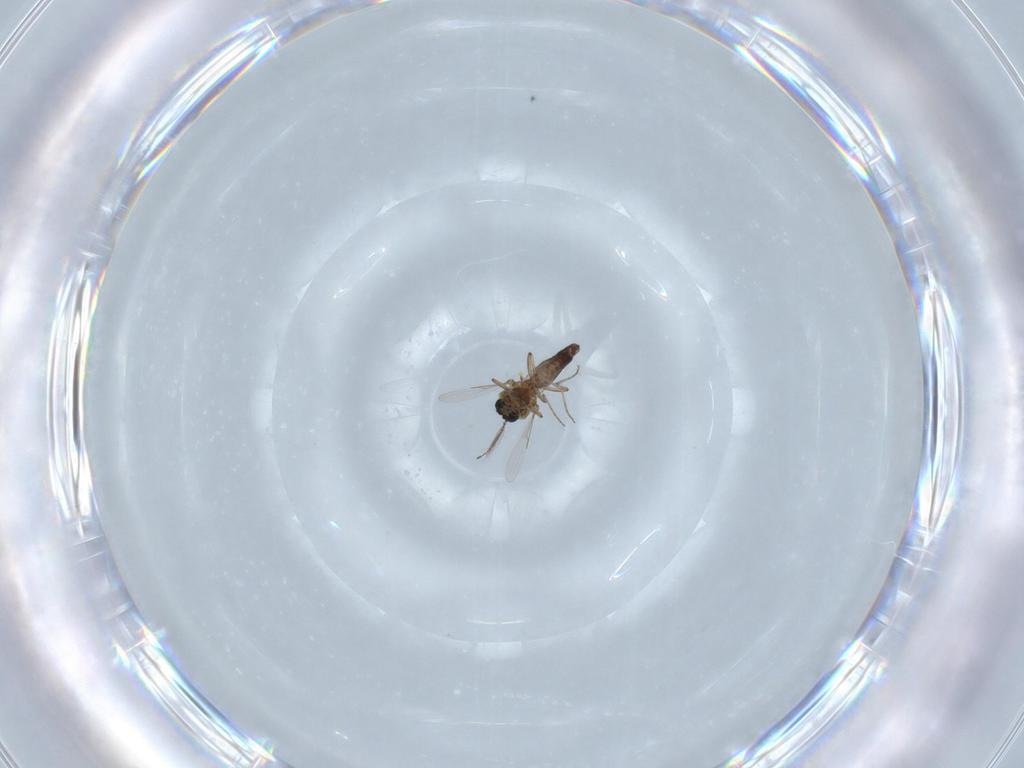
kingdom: Animalia
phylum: Arthropoda
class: Insecta
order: Diptera
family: Ceratopogonidae
